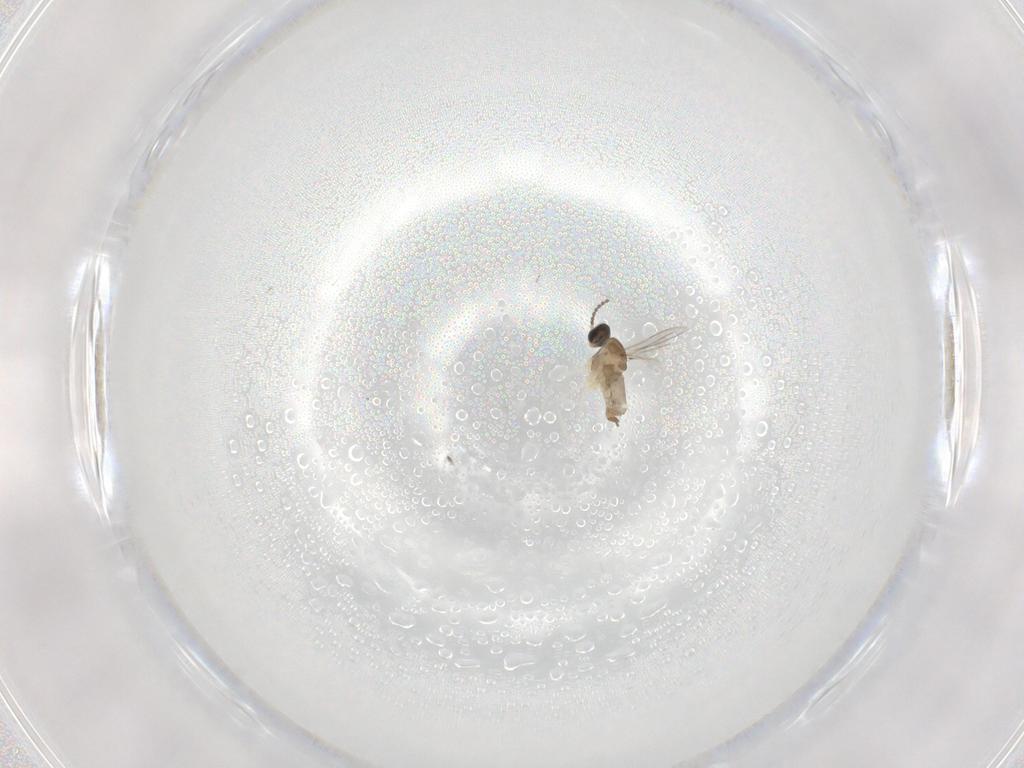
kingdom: Animalia
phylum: Arthropoda
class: Insecta
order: Diptera
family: Cecidomyiidae
